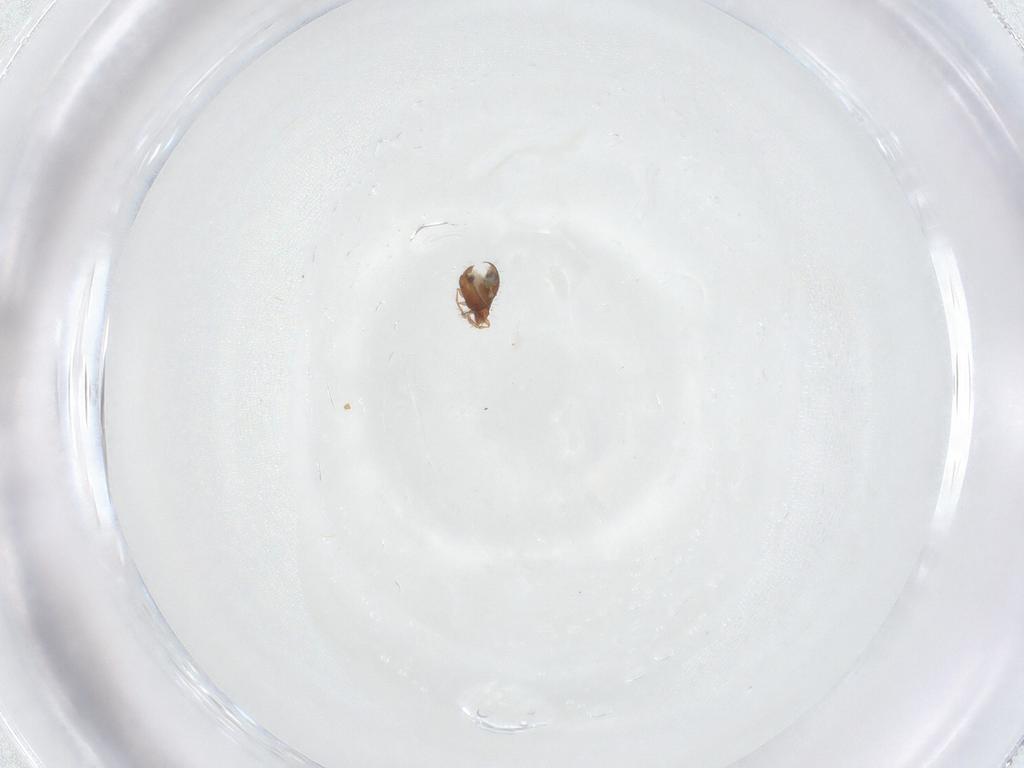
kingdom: Animalia
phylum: Arthropoda
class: Arachnida
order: Sarcoptiformes
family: Oribatulidae
